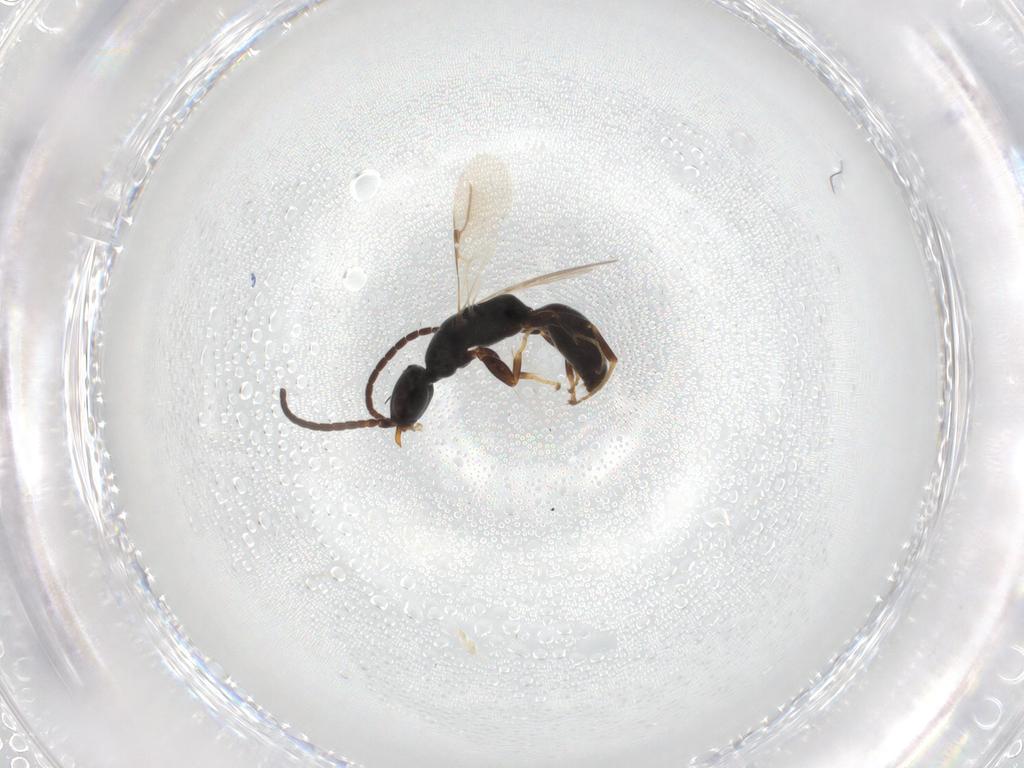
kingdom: Animalia
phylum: Arthropoda
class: Insecta
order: Hymenoptera
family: Bethylidae
